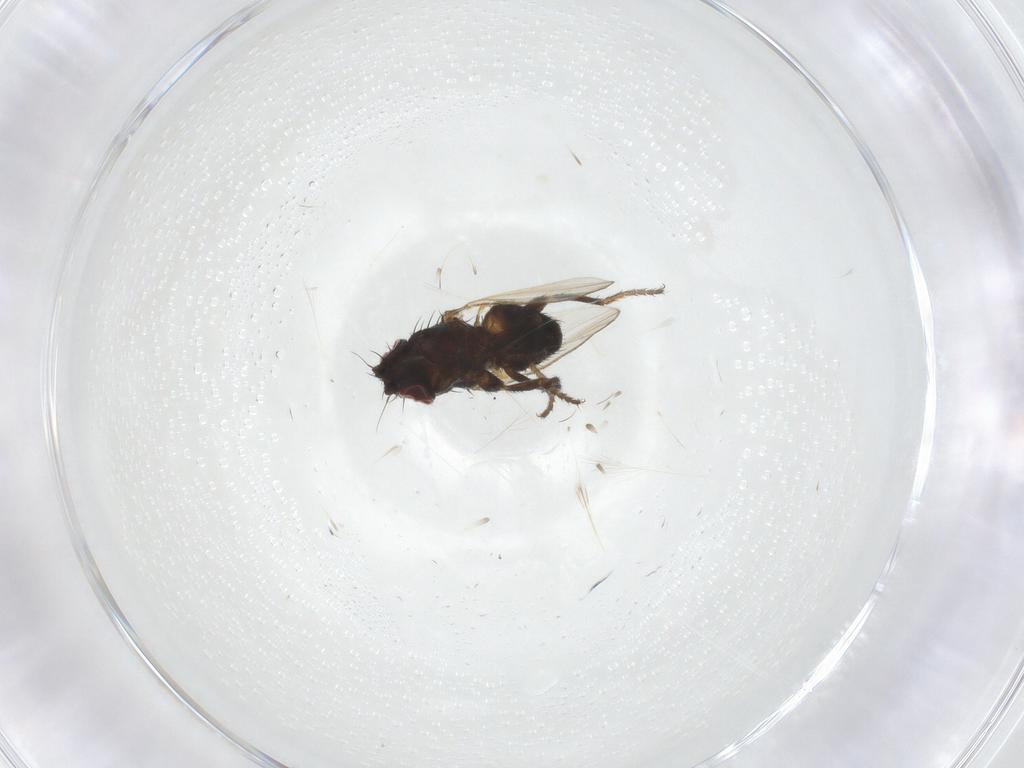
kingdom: Animalia
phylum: Arthropoda
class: Insecta
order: Diptera
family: Milichiidae
